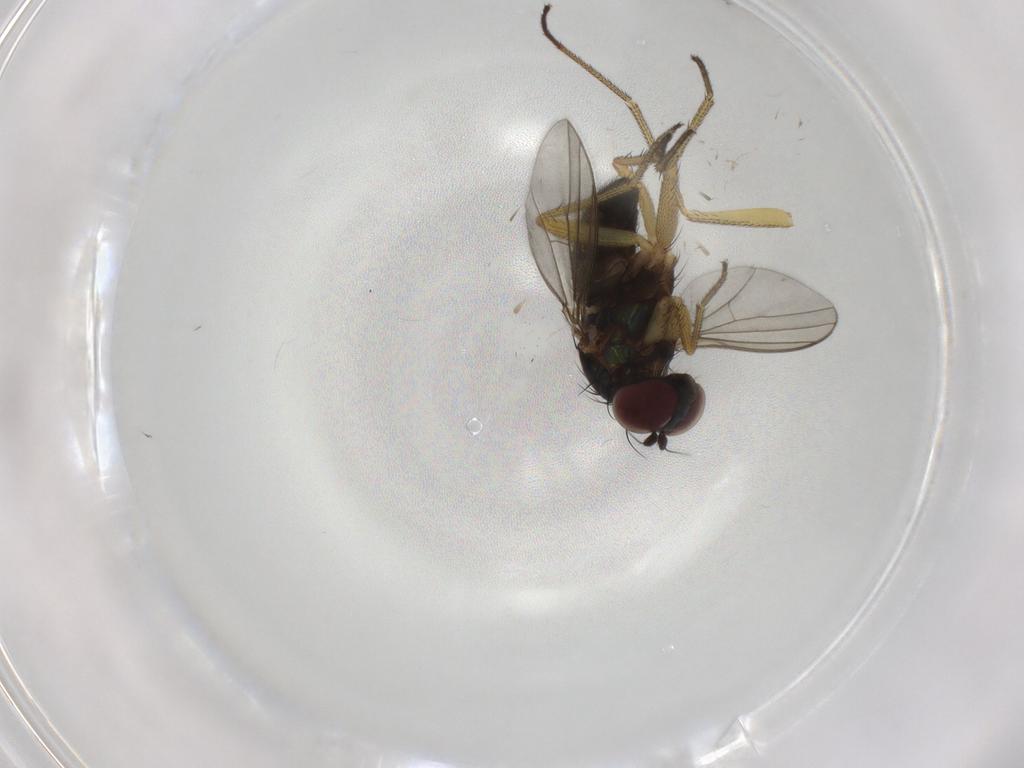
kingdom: Animalia
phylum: Arthropoda
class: Insecta
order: Diptera
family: Dolichopodidae
